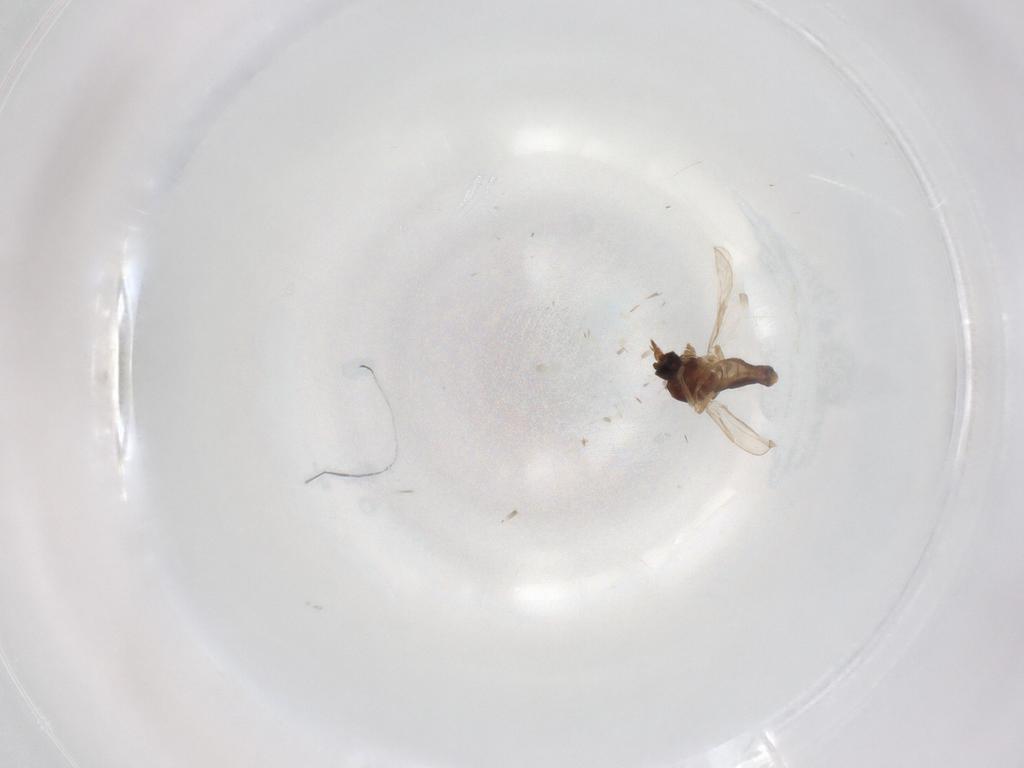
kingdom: Animalia
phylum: Arthropoda
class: Insecta
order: Diptera
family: Ceratopogonidae
